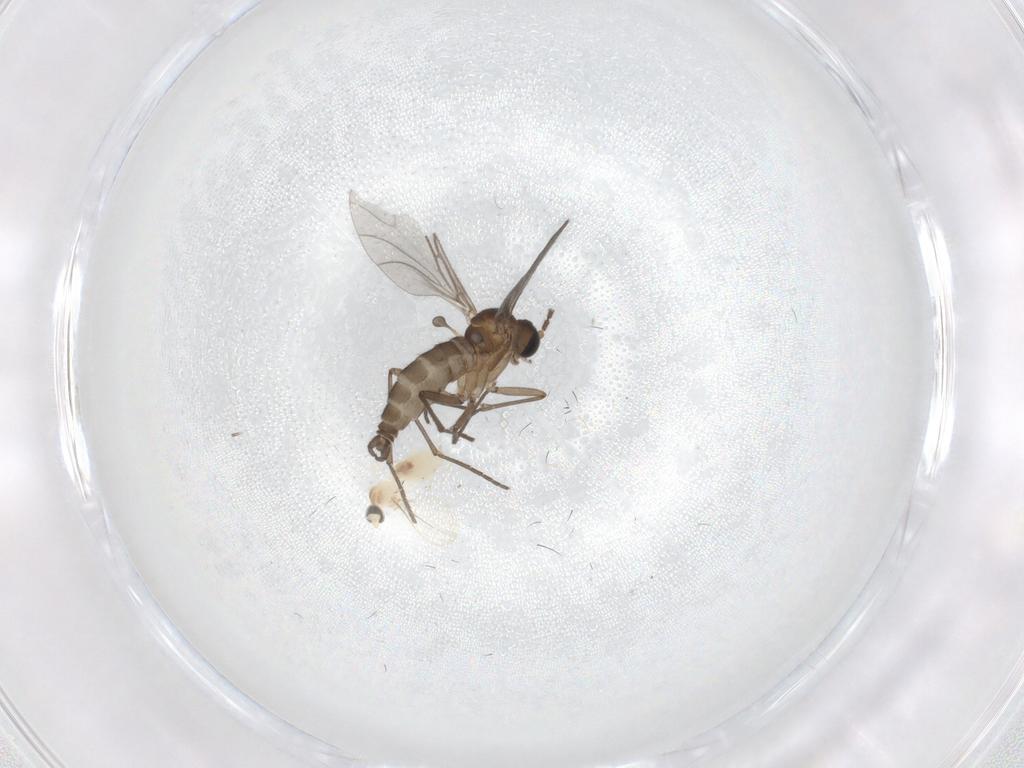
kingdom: Animalia
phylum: Arthropoda
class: Insecta
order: Diptera
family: Cecidomyiidae
